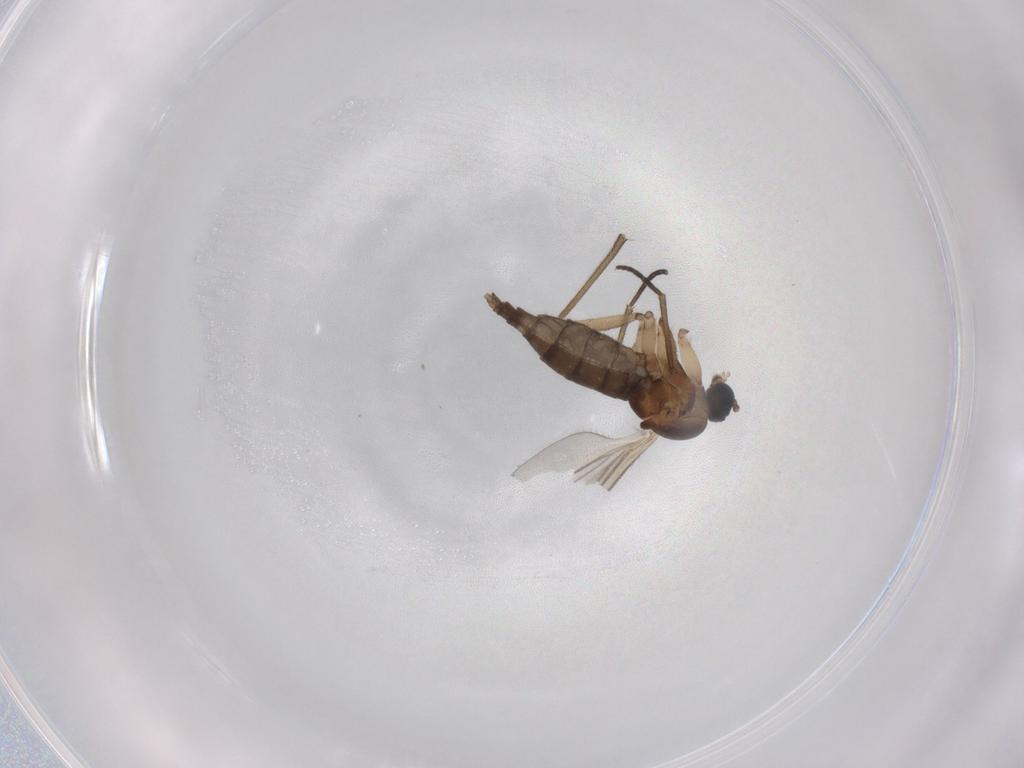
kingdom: Animalia
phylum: Arthropoda
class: Insecta
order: Diptera
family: Sciaridae
